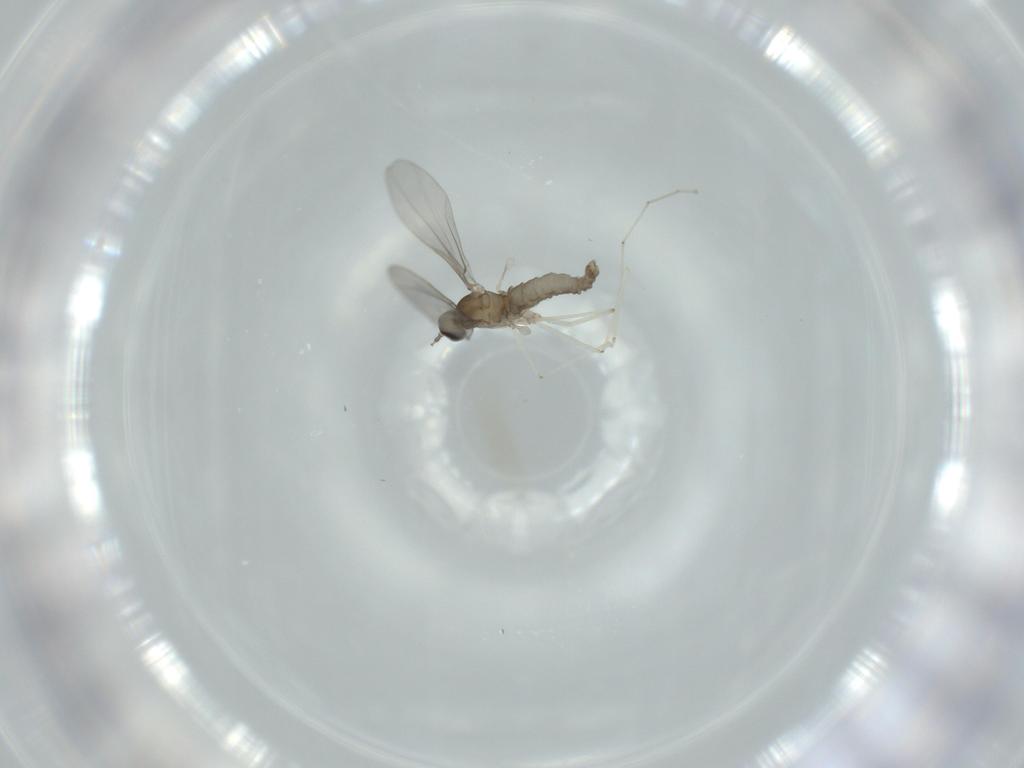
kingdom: Animalia
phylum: Arthropoda
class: Insecta
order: Diptera
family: Cecidomyiidae
